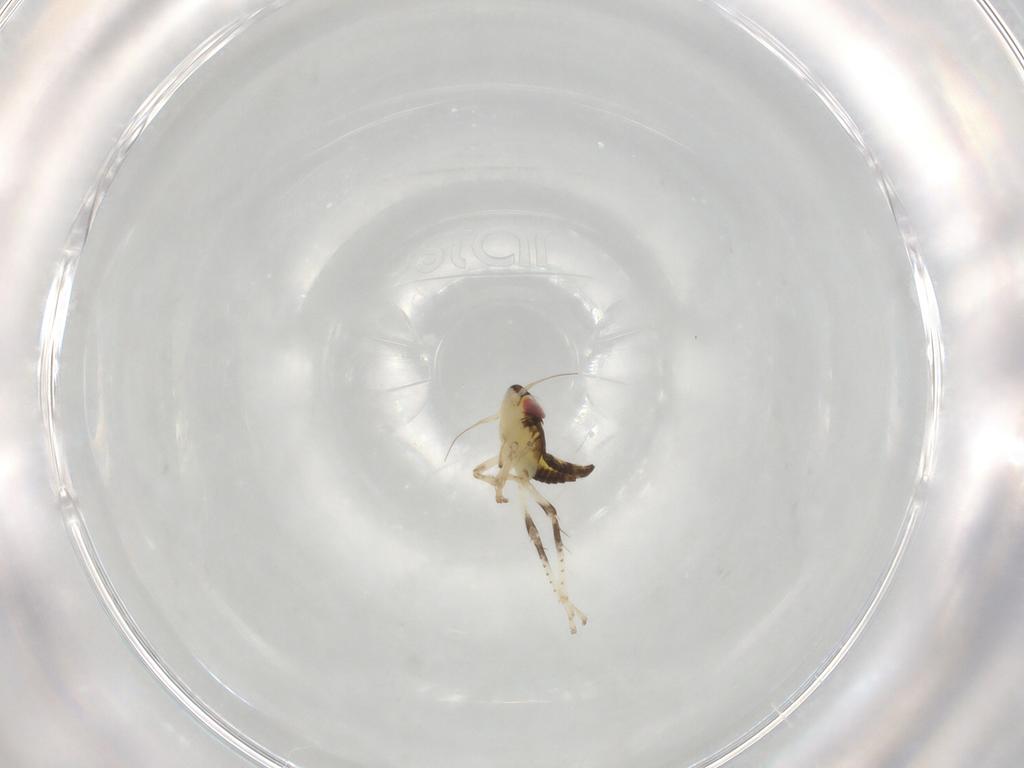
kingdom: Animalia
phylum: Arthropoda
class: Insecta
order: Hemiptera
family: Cicadellidae
